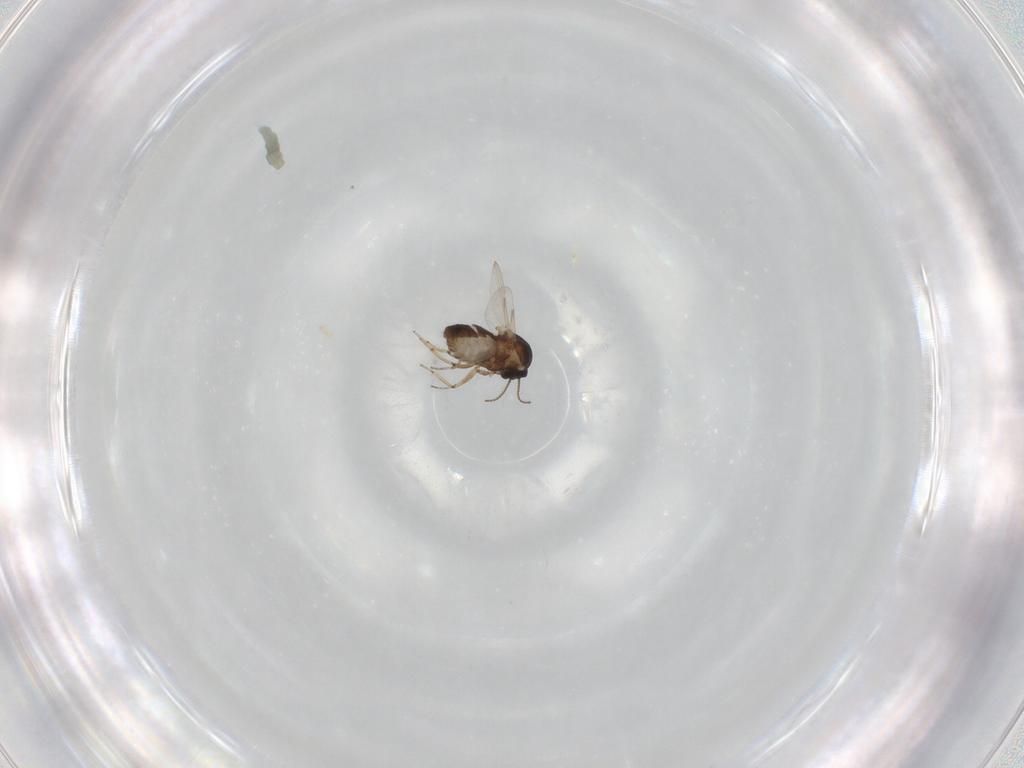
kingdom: Animalia
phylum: Arthropoda
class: Insecta
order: Diptera
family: Ceratopogonidae
